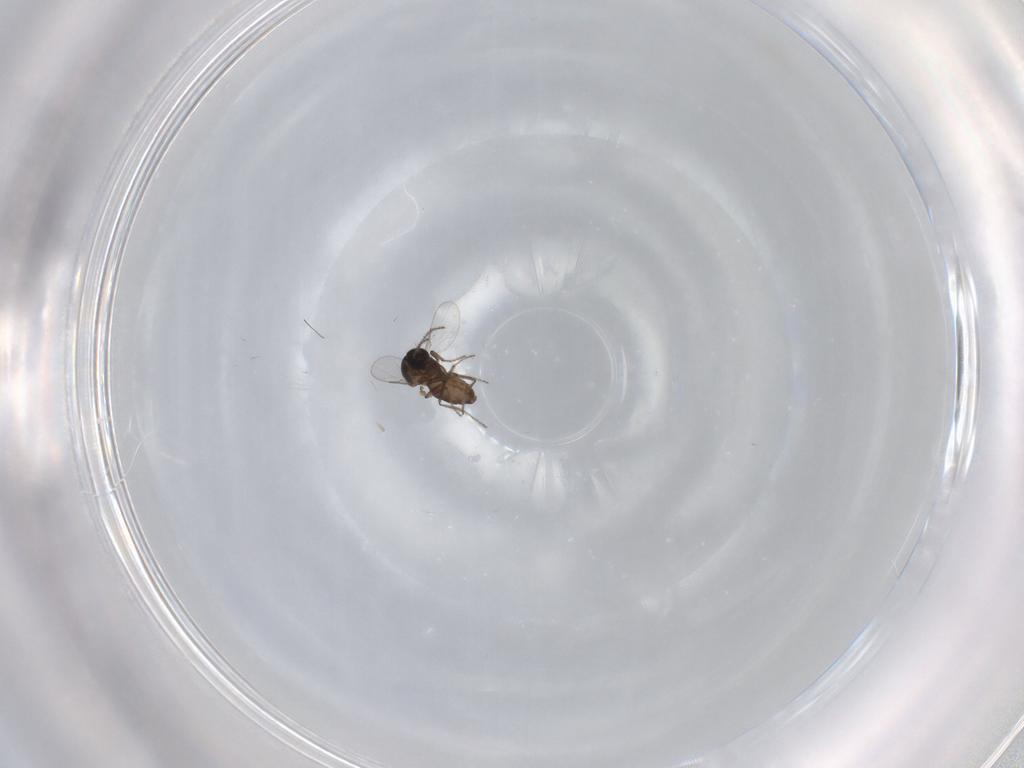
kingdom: Animalia
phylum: Arthropoda
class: Insecta
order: Diptera
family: Ceratopogonidae
